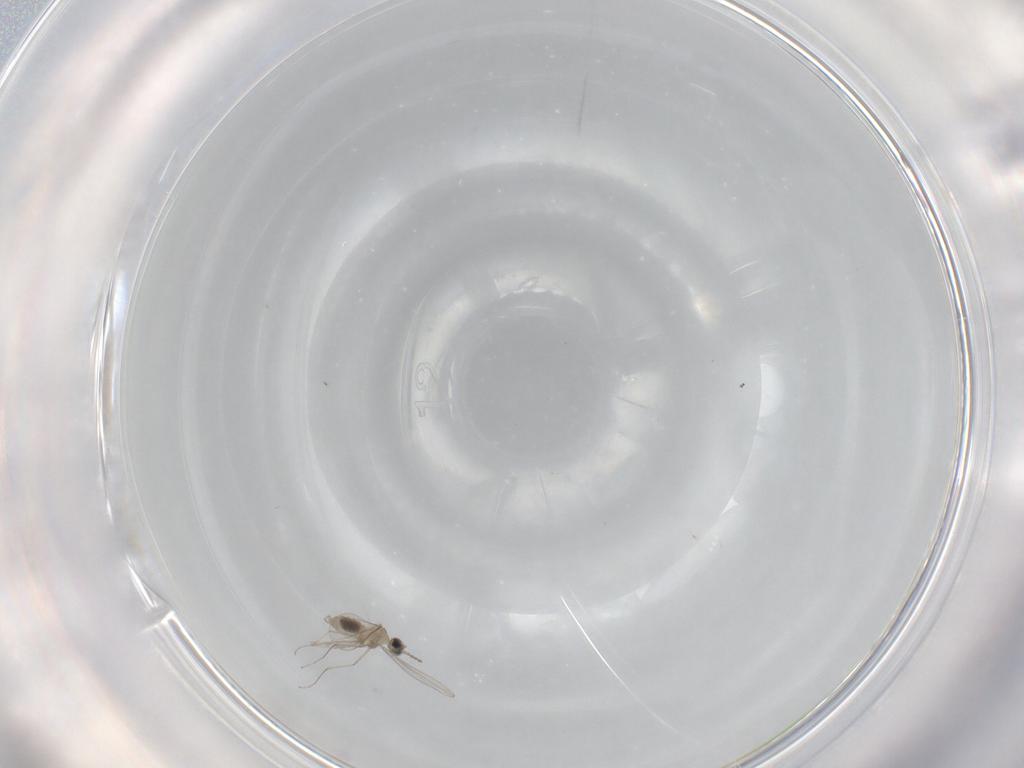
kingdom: Animalia
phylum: Arthropoda
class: Insecta
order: Diptera
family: Cecidomyiidae
